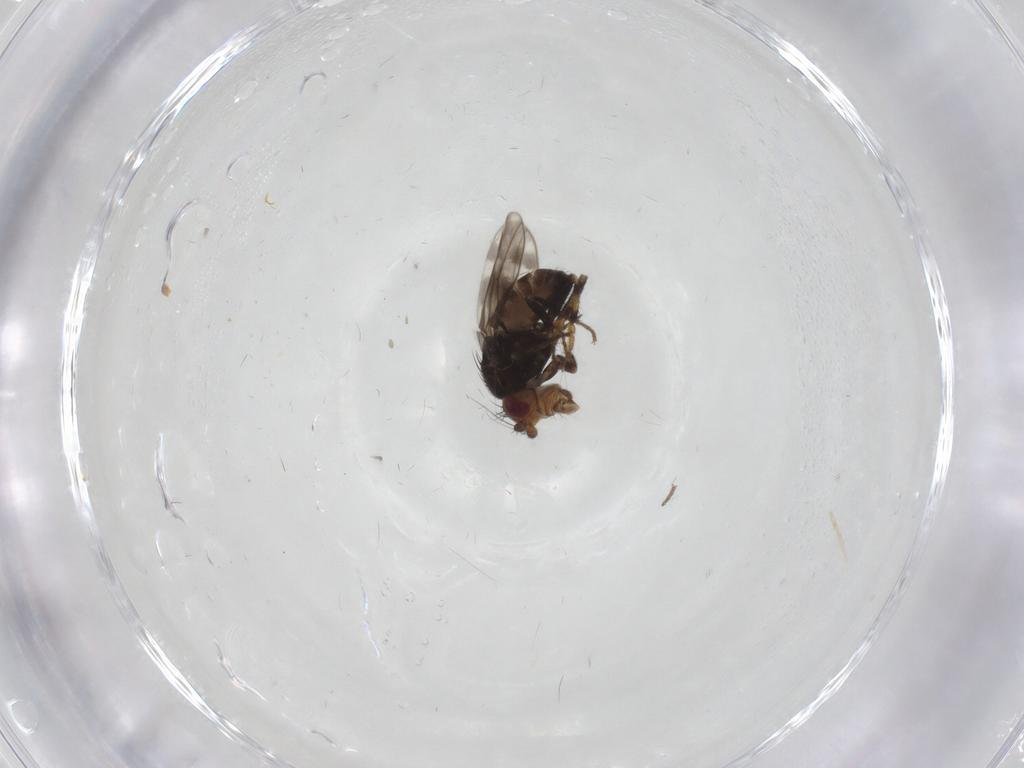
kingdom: Animalia
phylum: Arthropoda
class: Insecta
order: Diptera
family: Sphaeroceridae
